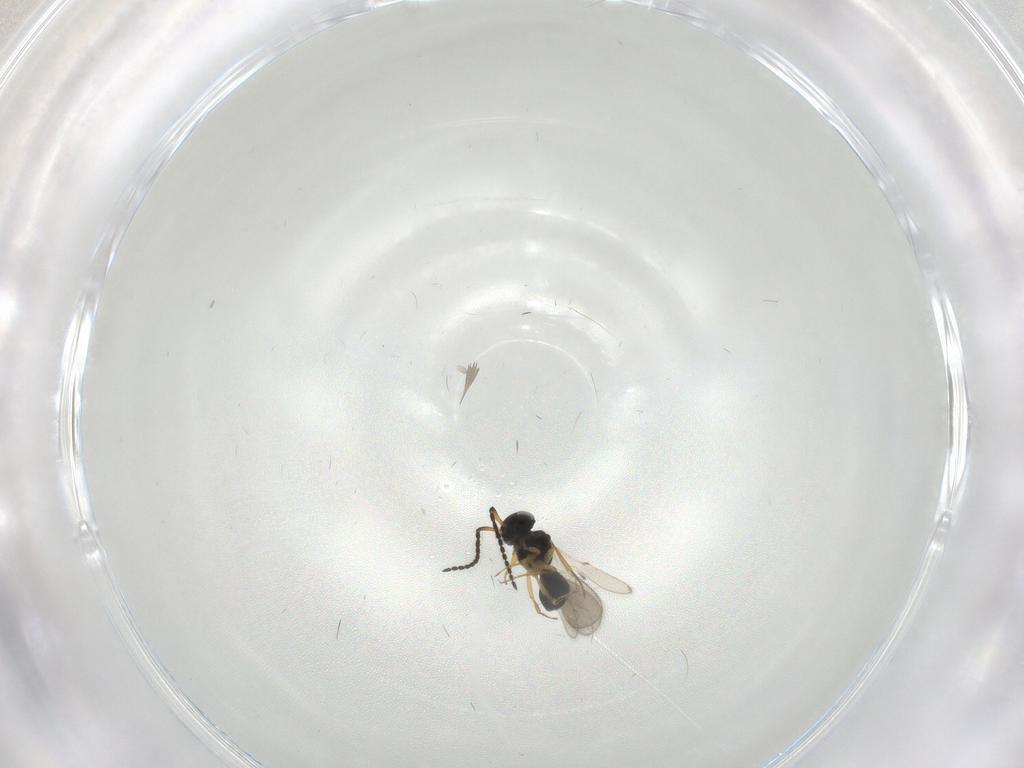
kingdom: Animalia
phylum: Arthropoda
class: Insecta
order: Hymenoptera
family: Scelionidae
